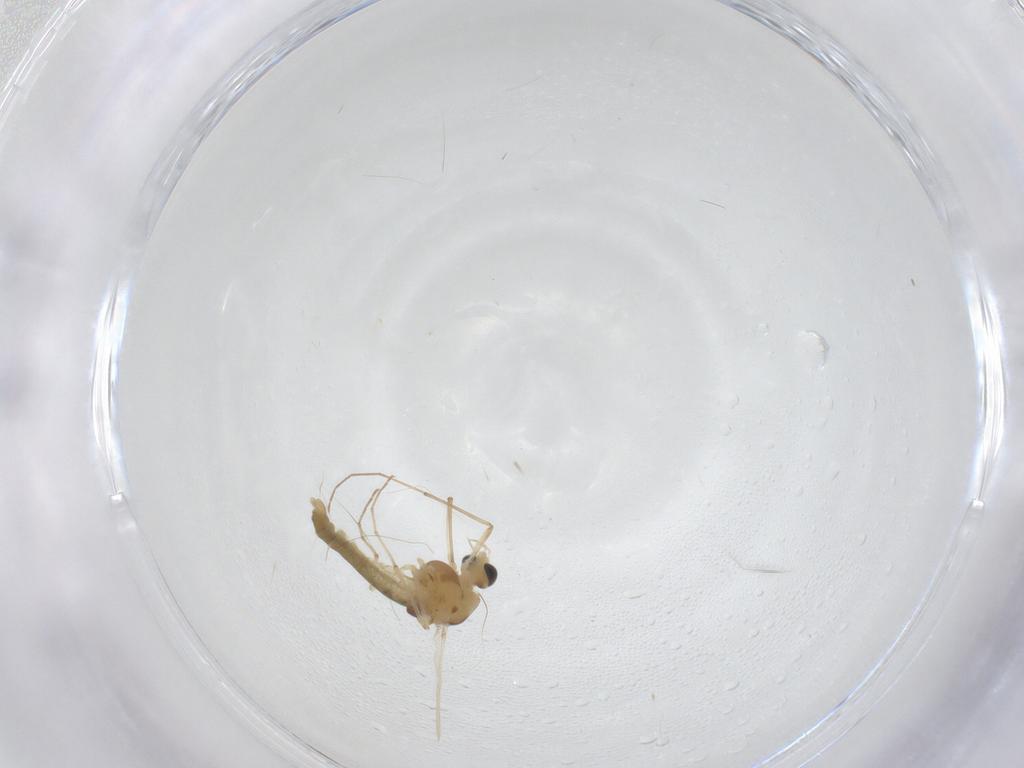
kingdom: Animalia
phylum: Arthropoda
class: Insecta
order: Diptera
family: Chironomidae
